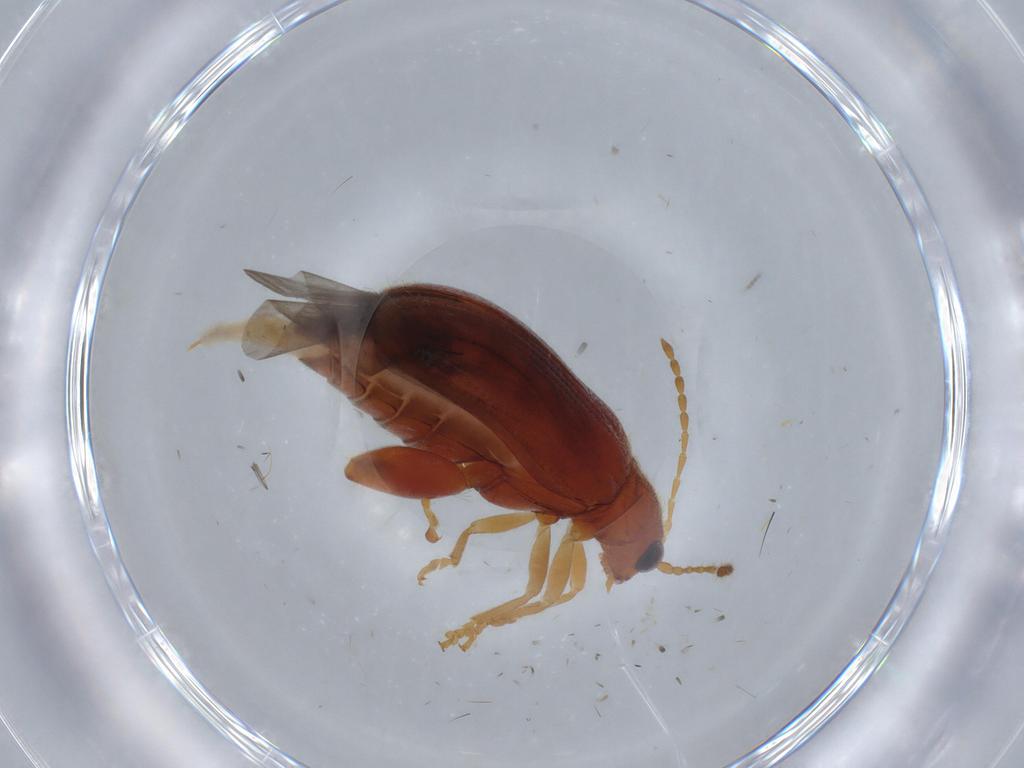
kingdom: Animalia
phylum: Arthropoda
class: Insecta
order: Coleoptera
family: Chrysomelidae
